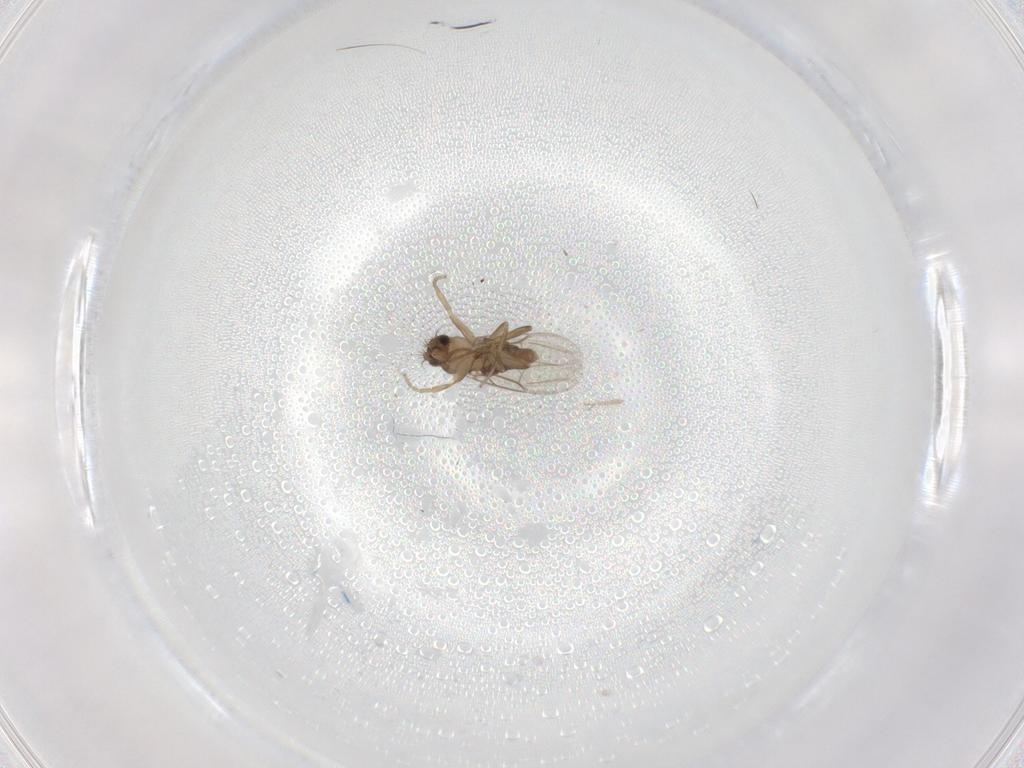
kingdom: Animalia
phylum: Arthropoda
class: Insecta
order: Diptera
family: Phoridae
